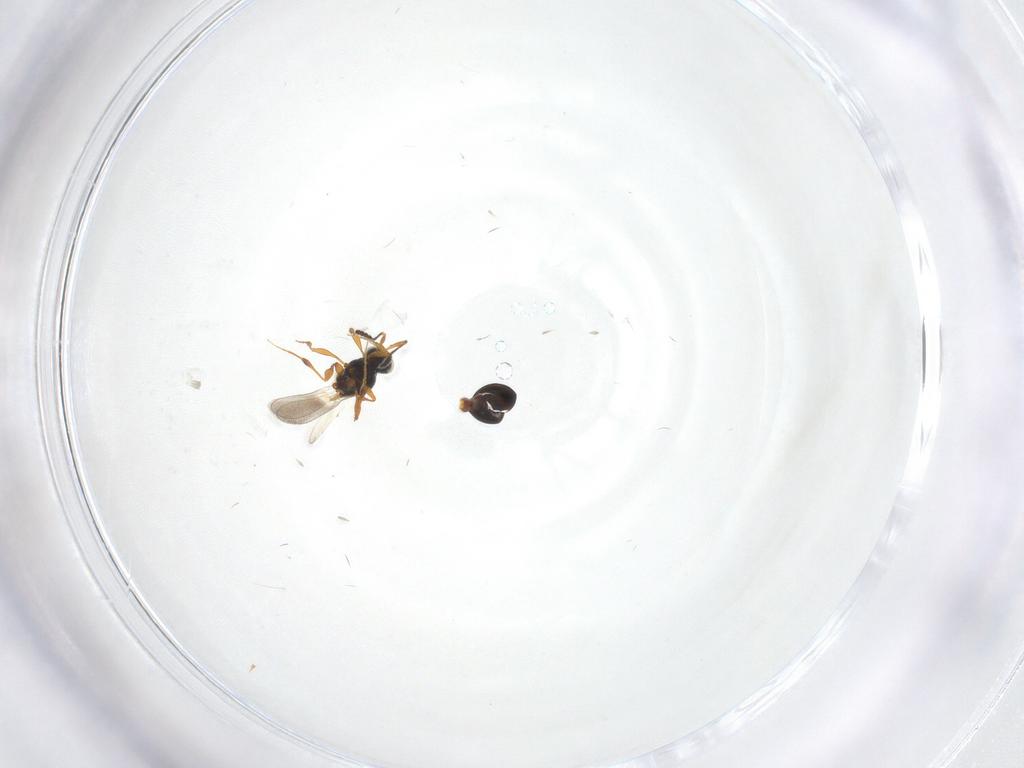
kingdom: Animalia
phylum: Arthropoda
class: Insecta
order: Hymenoptera
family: Platygastridae
